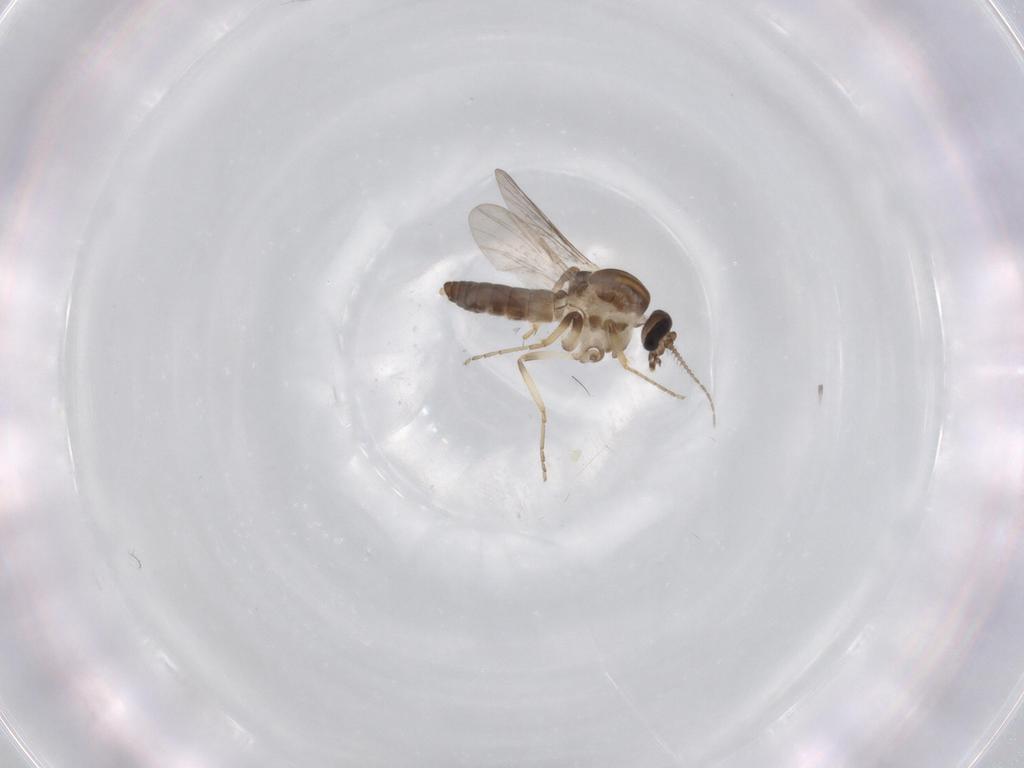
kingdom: Animalia
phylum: Arthropoda
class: Insecta
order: Diptera
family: Ceratopogonidae
